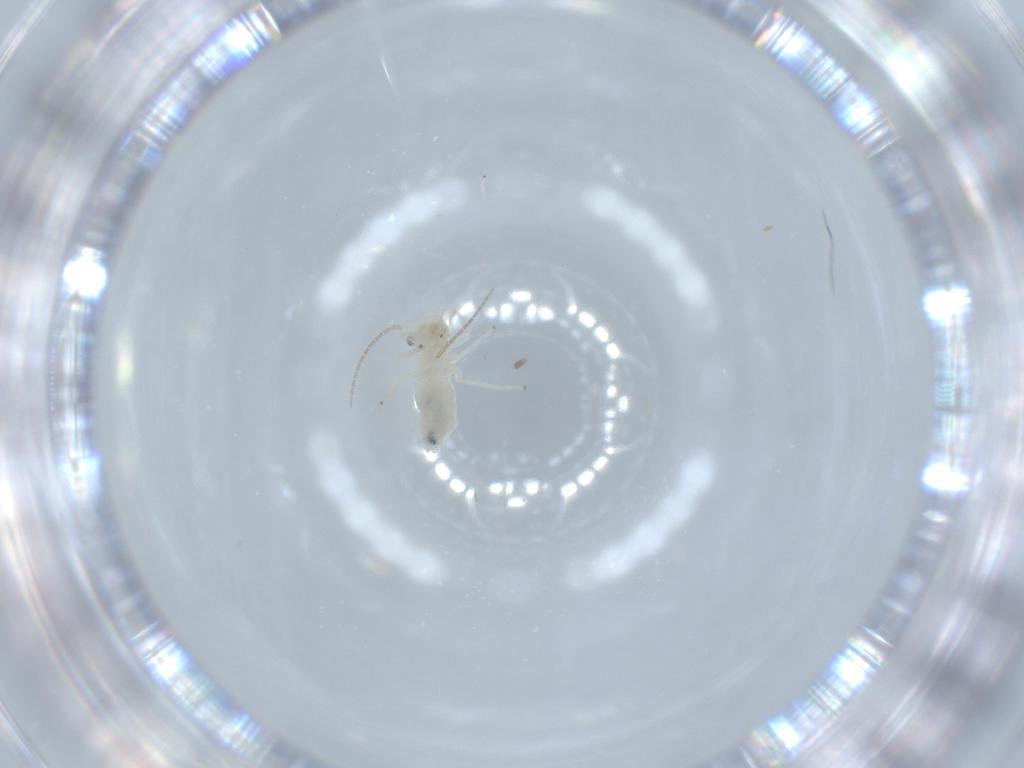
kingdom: Animalia
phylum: Arthropoda
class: Insecta
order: Psocodea
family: Caeciliusidae
